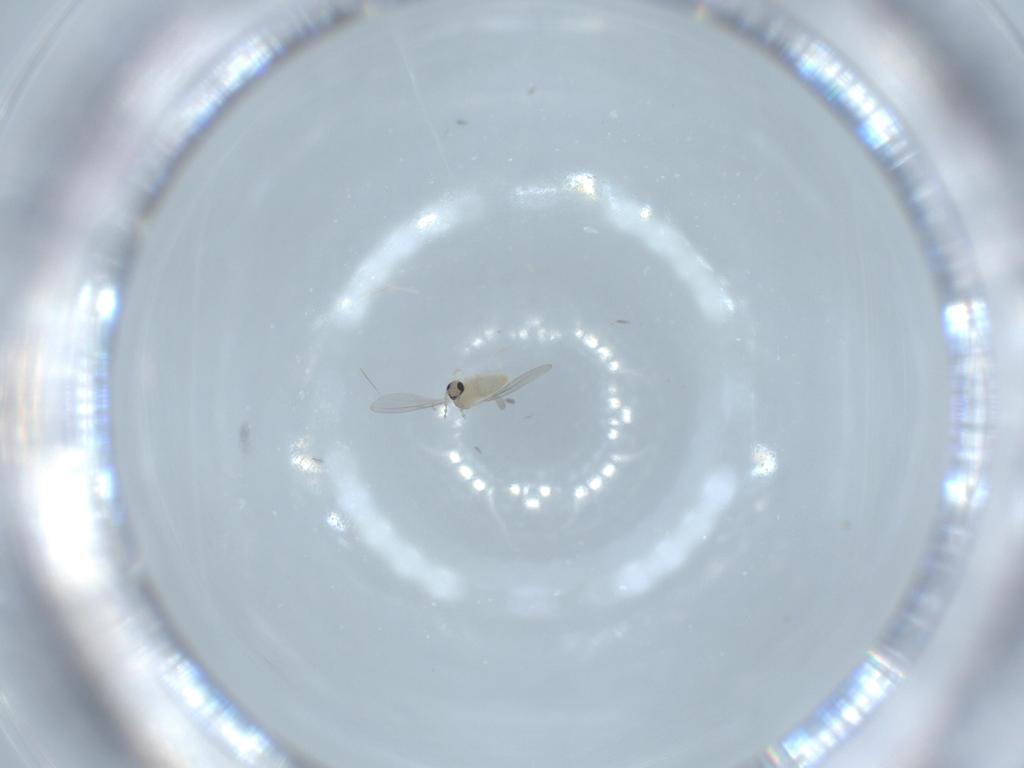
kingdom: Animalia
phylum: Arthropoda
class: Insecta
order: Diptera
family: Cecidomyiidae
